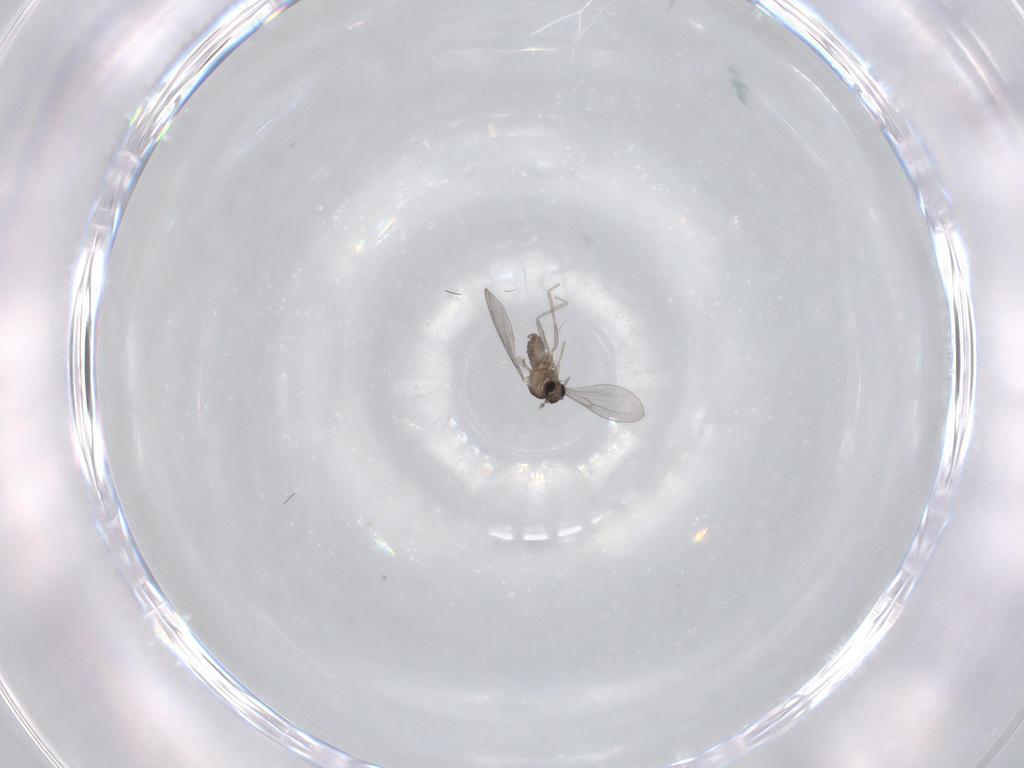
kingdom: Animalia
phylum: Arthropoda
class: Insecta
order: Diptera
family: Cecidomyiidae
